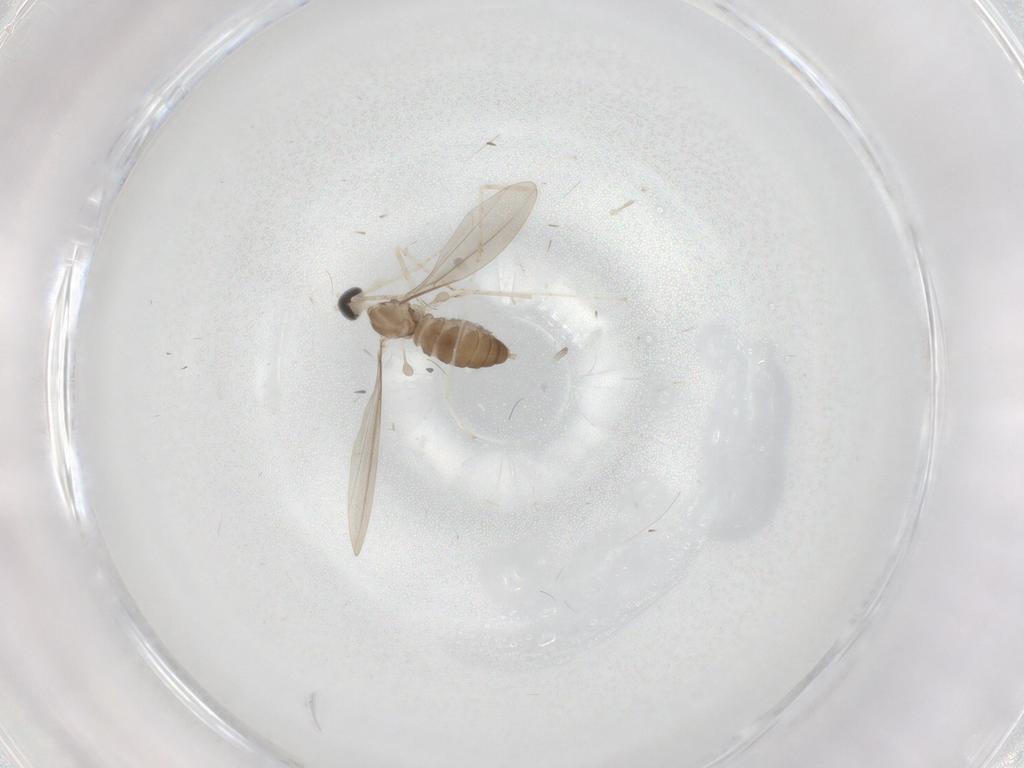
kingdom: Animalia
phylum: Arthropoda
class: Insecta
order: Diptera
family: Cecidomyiidae
